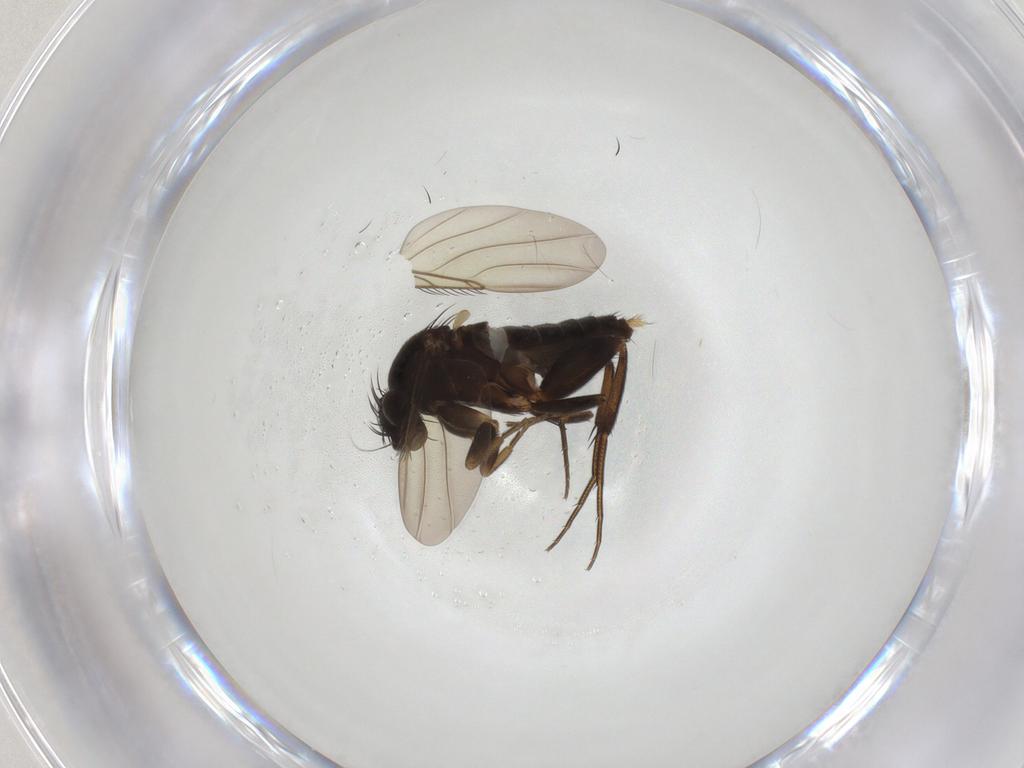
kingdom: Animalia
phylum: Arthropoda
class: Insecta
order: Diptera
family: Phoridae
